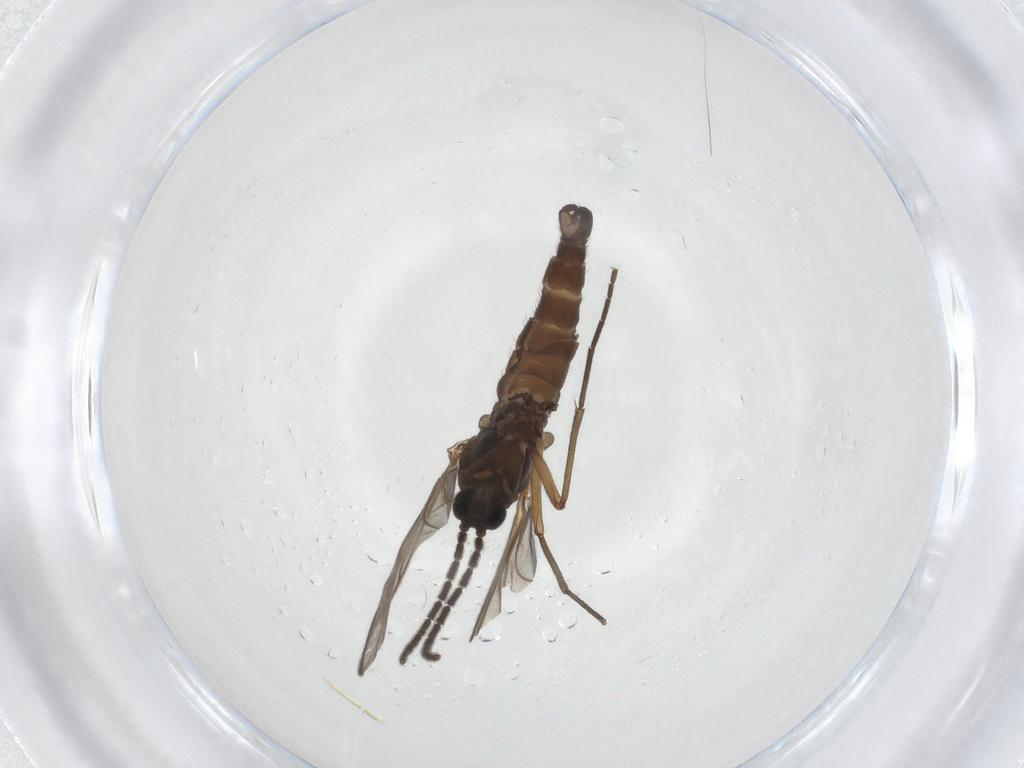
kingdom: Animalia
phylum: Arthropoda
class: Insecta
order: Diptera
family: Sciaridae
